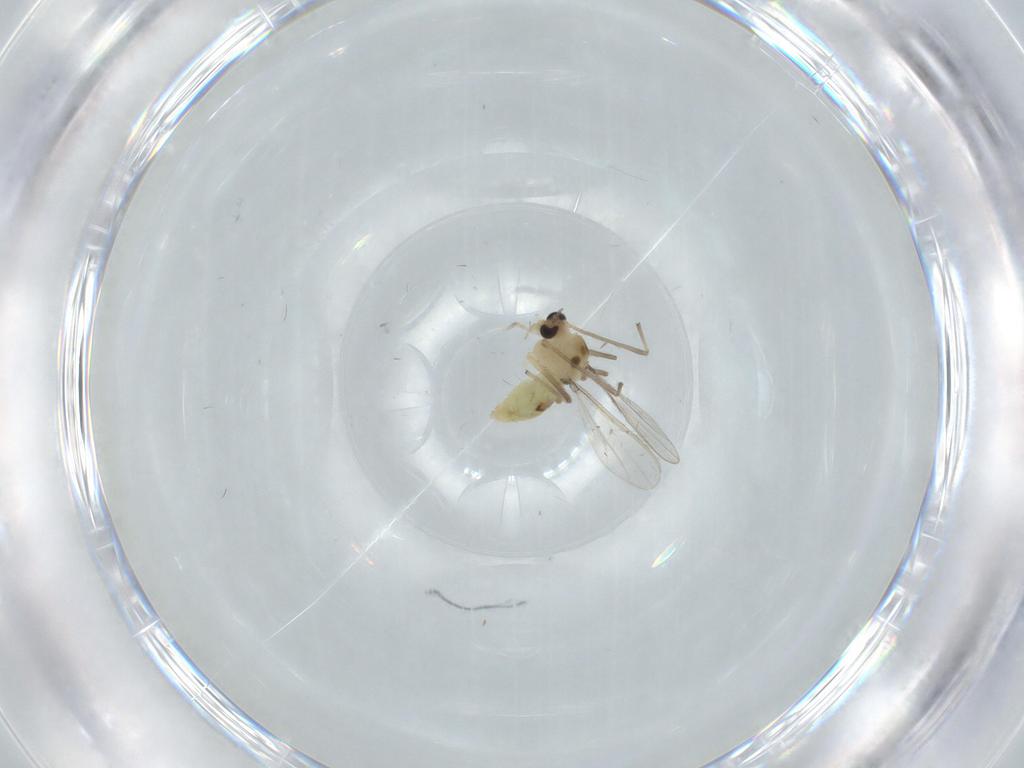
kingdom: Animalia
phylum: Arthropoda
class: Insecta
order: Diptera
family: Chironomidae
